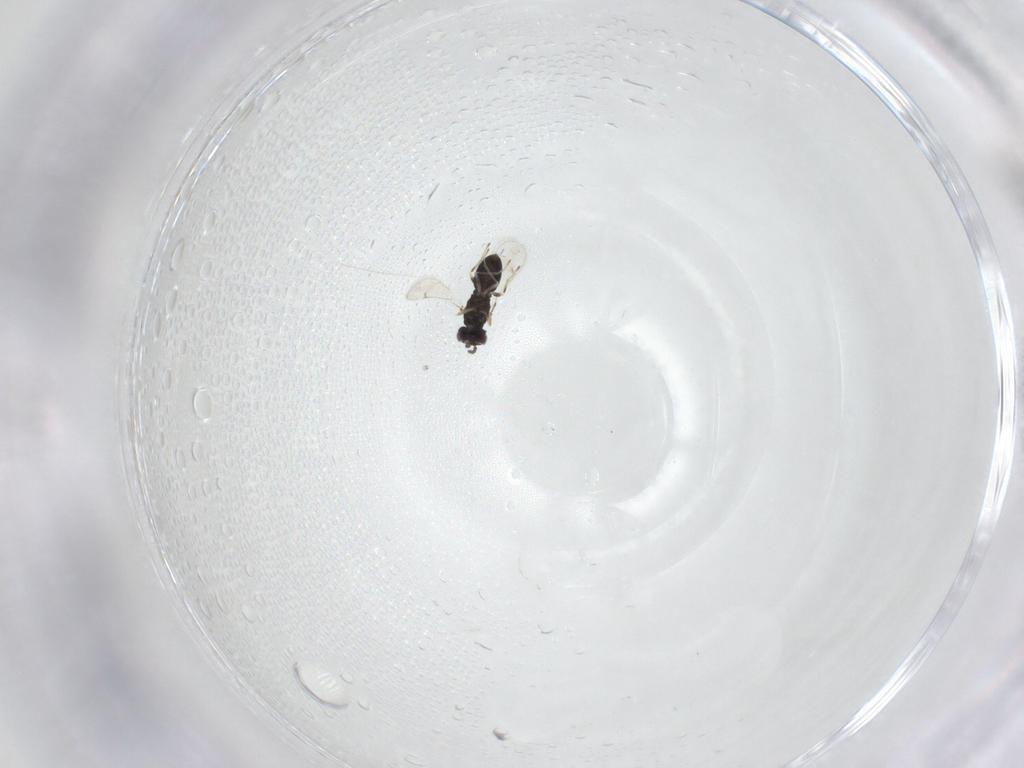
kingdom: Animalia
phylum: Arthropoda
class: Insecta
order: Hymenoptera
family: Eulophidae
